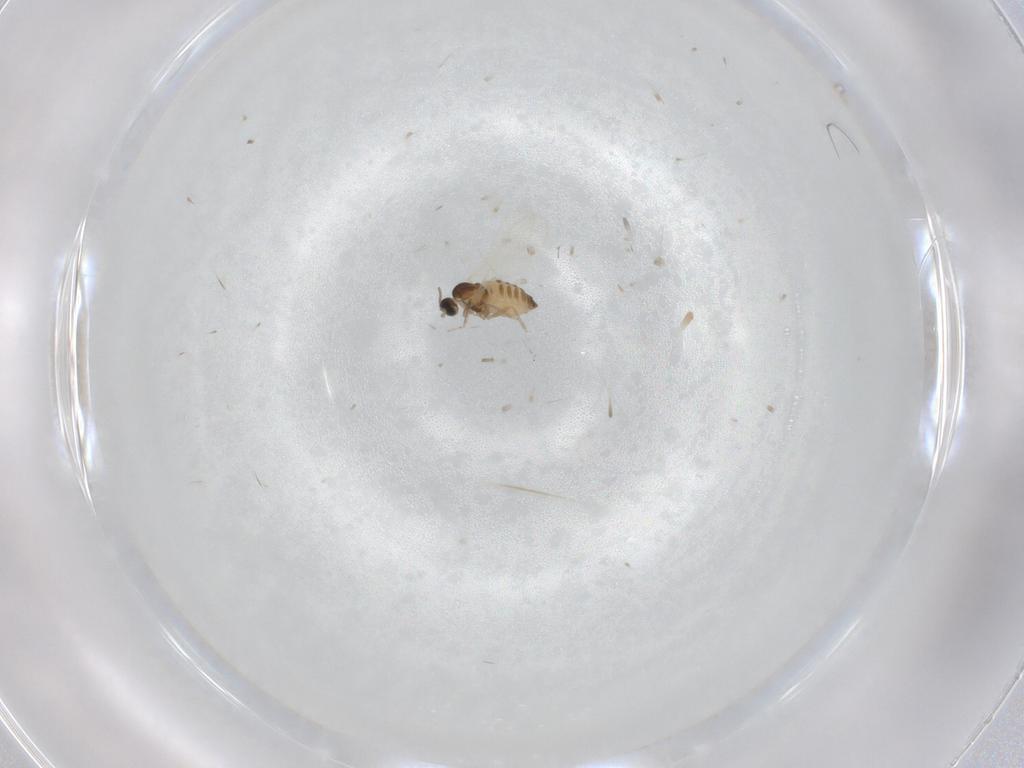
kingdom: Animalia
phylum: Arthropoda
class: Insecta
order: Diptera
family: Cecidomyiidae
